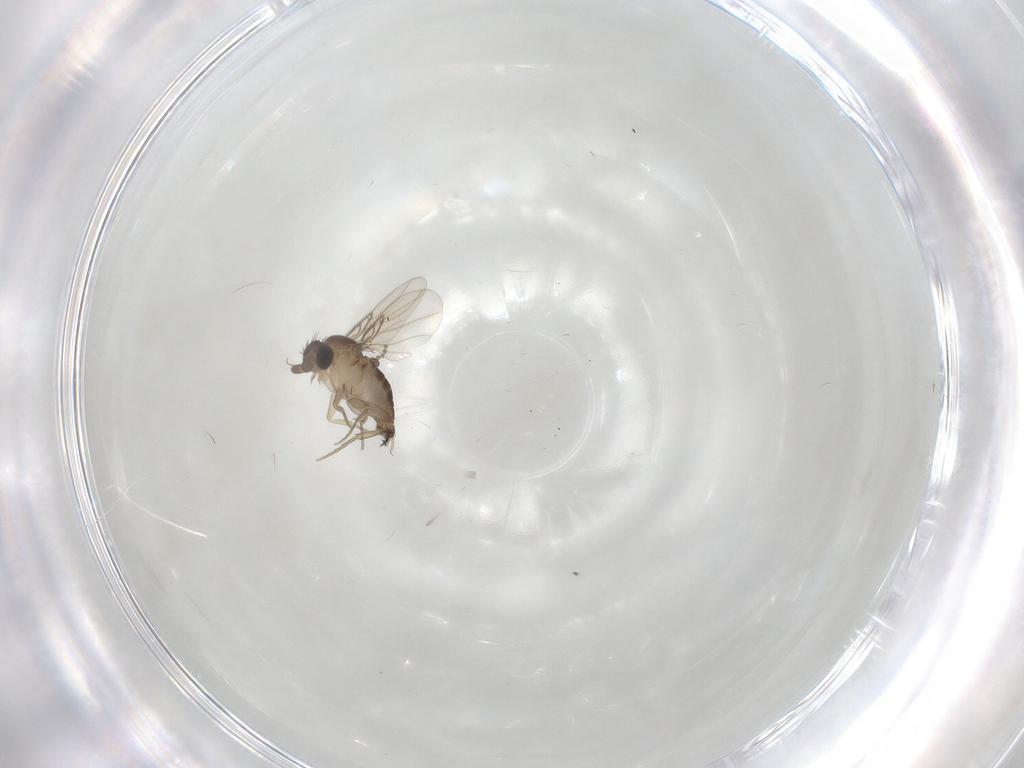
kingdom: Animalia
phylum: Arthropoda
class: Insecta
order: Diptera
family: Phoridae
